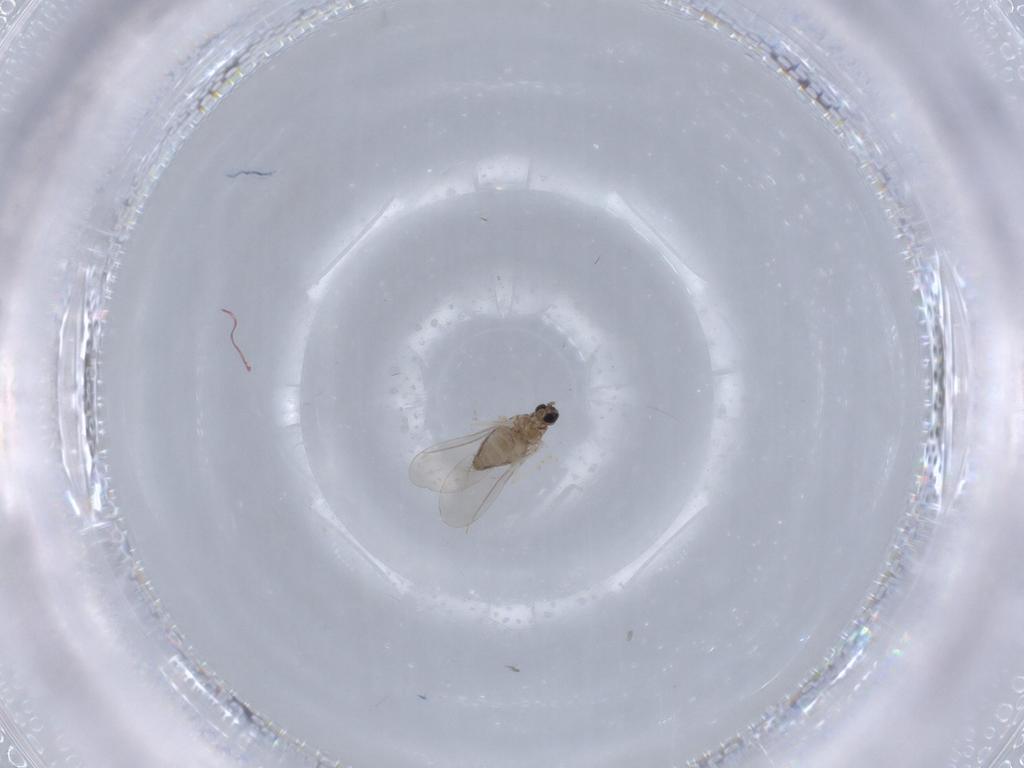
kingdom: Animalia
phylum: Arthropoda
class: Insecta
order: Diptera
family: Cecidomyiidae
